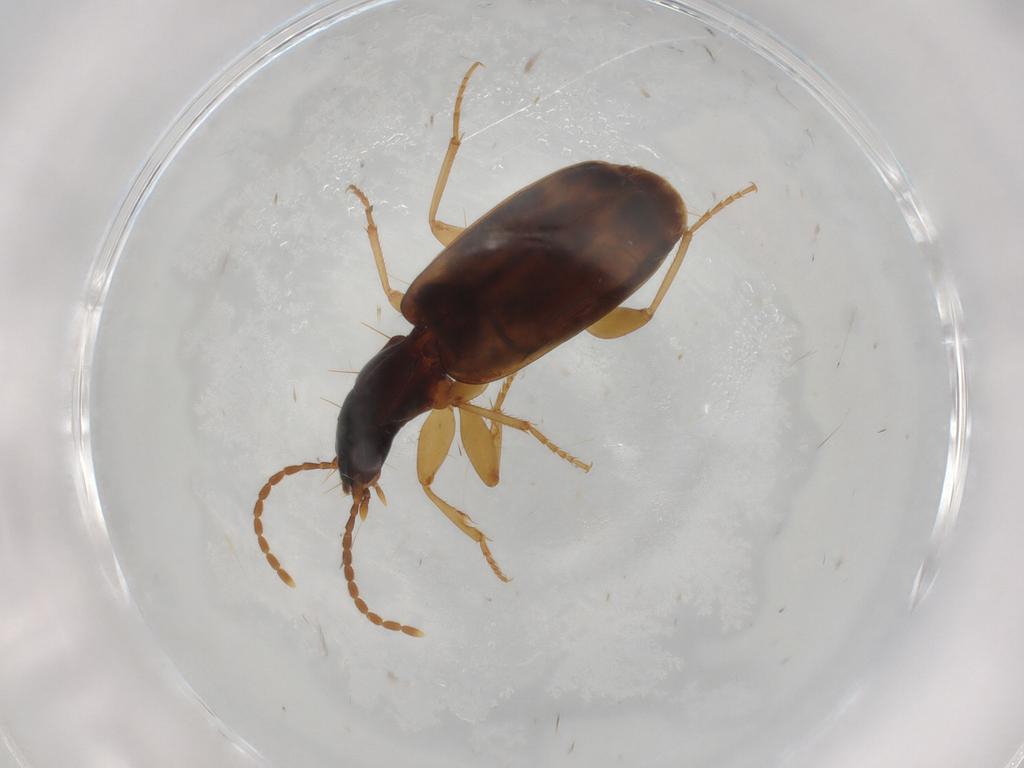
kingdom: Animalia
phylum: Arthropoda
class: Insecta
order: Coleoptera
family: Carabidae
